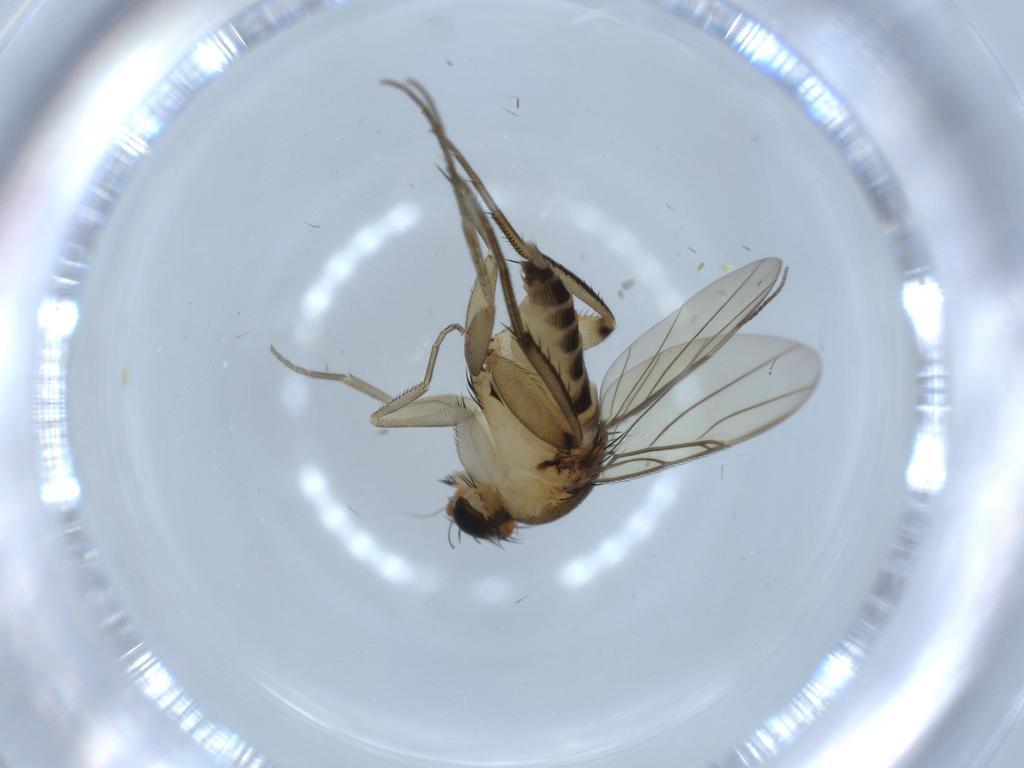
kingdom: Animalia
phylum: Arthropoda
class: Insecta
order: Diptera
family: Phoridae
